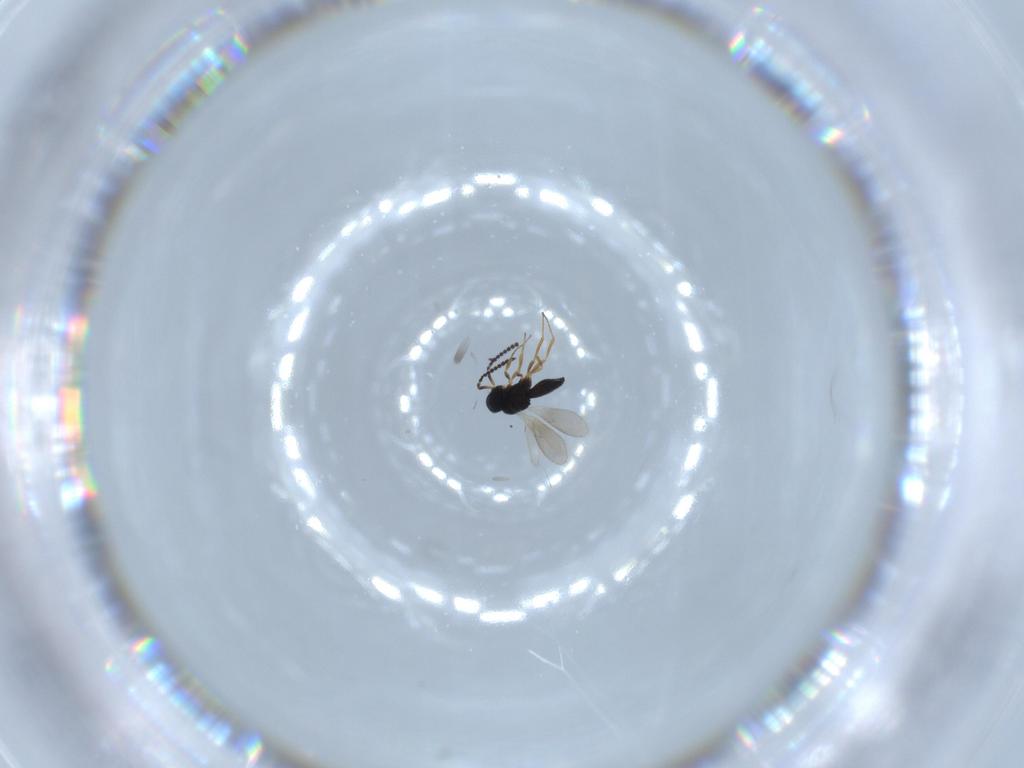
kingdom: Animalia
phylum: Arthropoda
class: Insecta
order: Hymenoptera
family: Scelionidae
